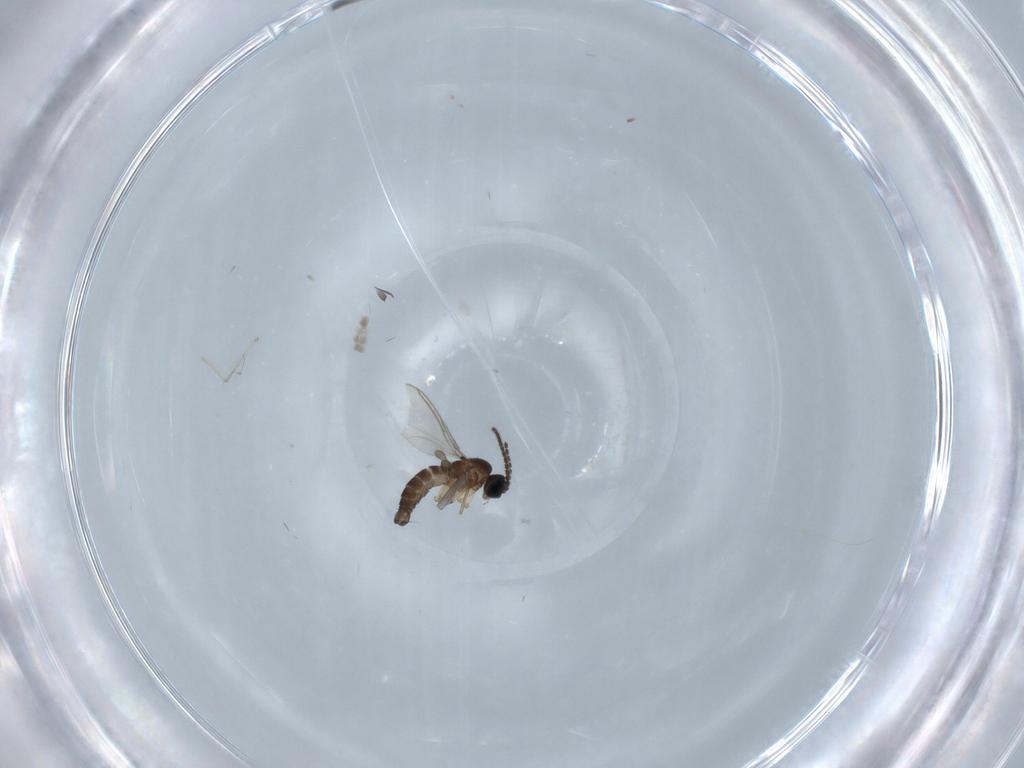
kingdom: Animalia
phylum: Arthropoda
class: Insecta
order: Diptera
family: Sciaridae
